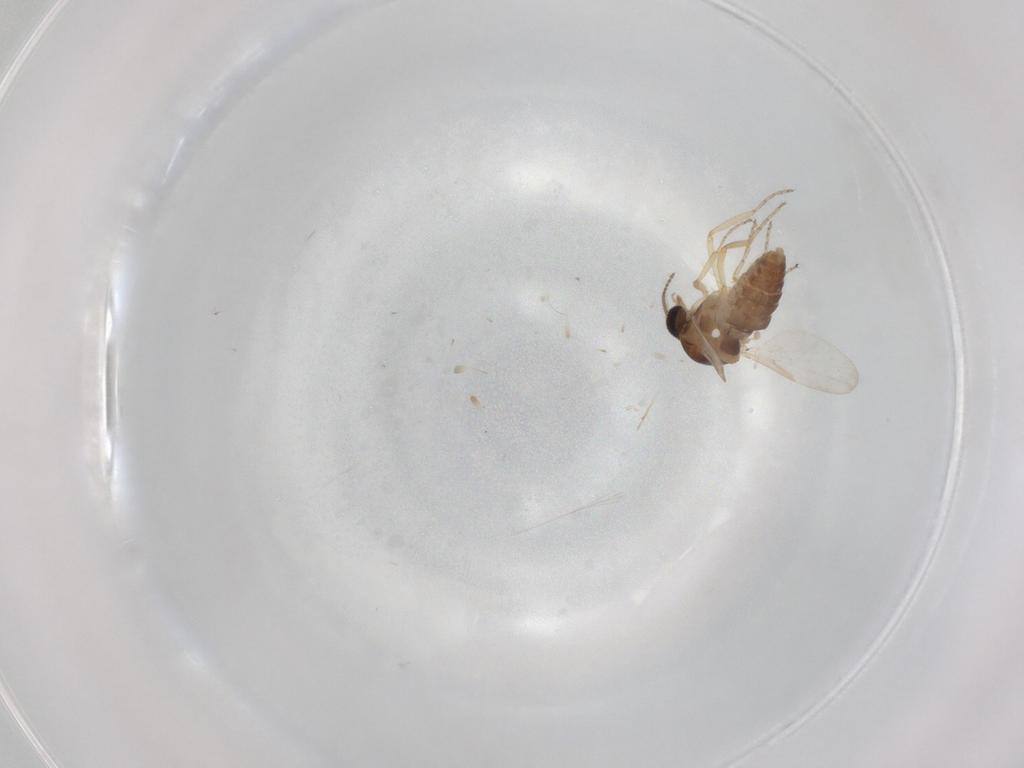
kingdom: Animalia
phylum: Arthropoda
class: Insecta
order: Diptera
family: Ceratopogonidae
